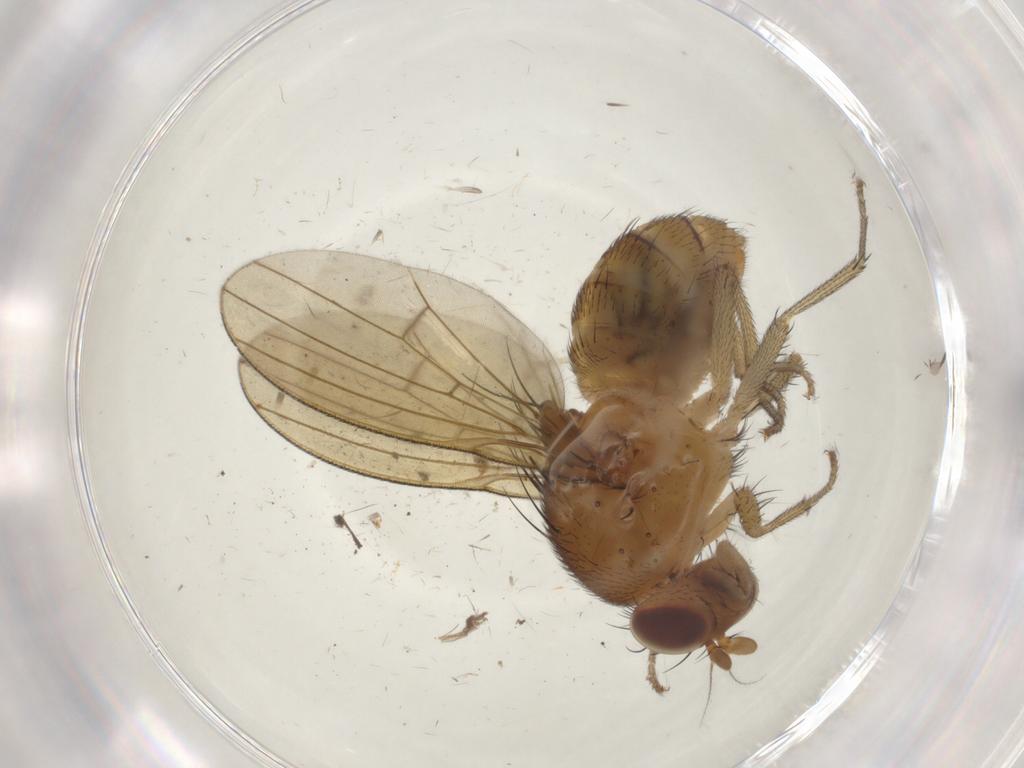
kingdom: Animalia
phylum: Arthropoda
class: Insecta
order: Diptera
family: Lauxaniidae
